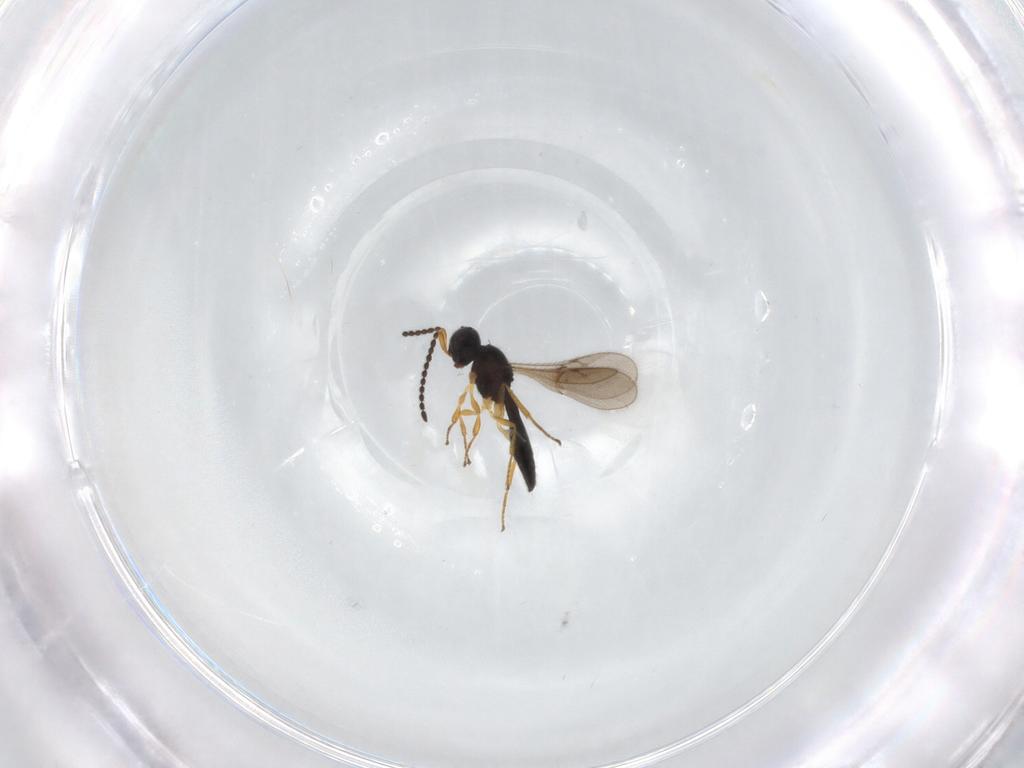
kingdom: Animalia
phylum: Arthropoda
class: Insecta
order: Hymenoptera
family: Scelionidae
